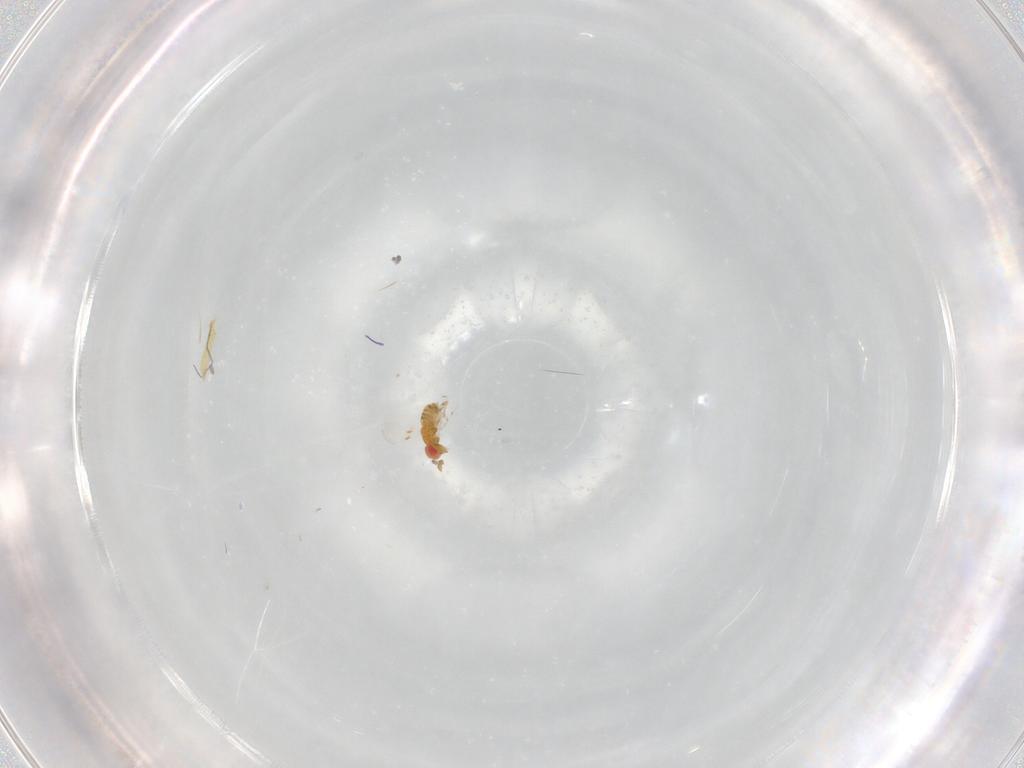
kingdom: Animalia
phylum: Arthropoda
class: Insecta
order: Hymenoptera
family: Trichogrammatidae
